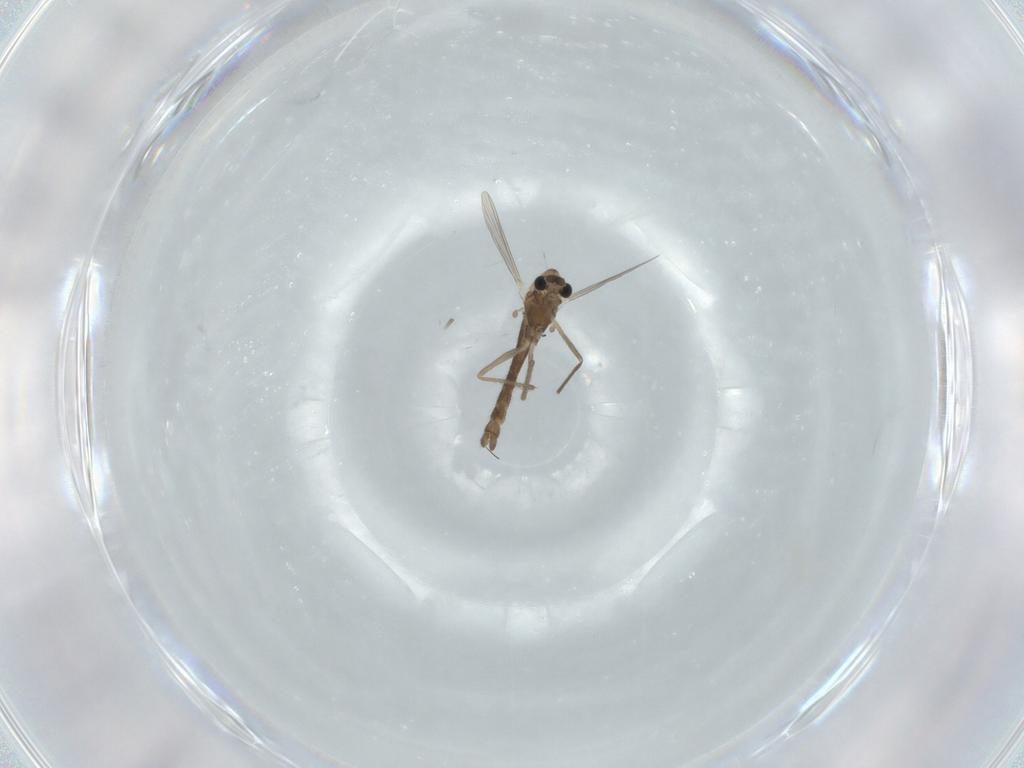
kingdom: Animalia
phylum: Arthropoda
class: Insecta
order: Diptera
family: Chironomidae
